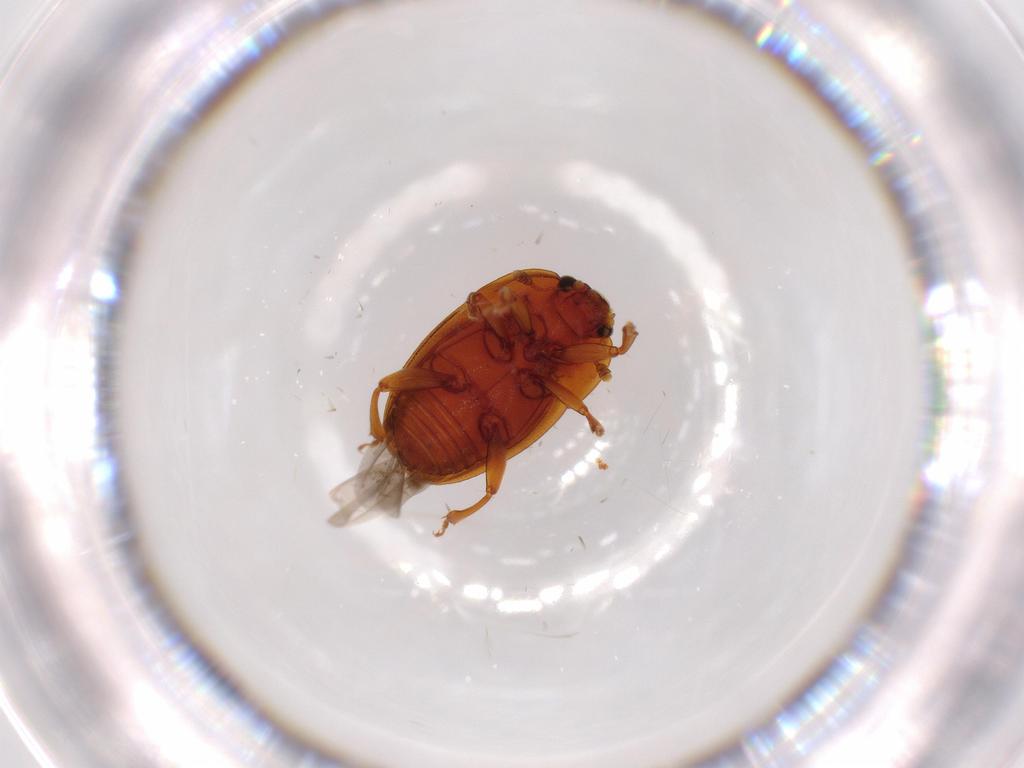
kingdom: Animalia
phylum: Arthropoda
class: Insecta
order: Coleoptera
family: Nitidulidae
